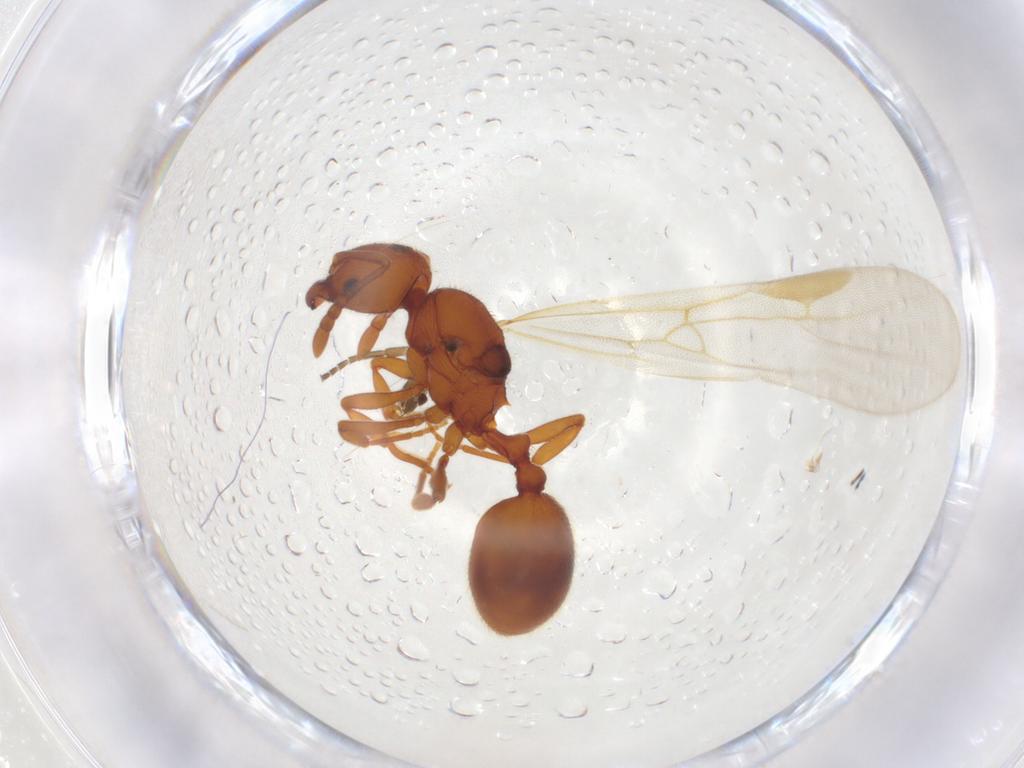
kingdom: Animalia
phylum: Arthropoda
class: Insecta
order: Hymenoptera
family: Formicidae
